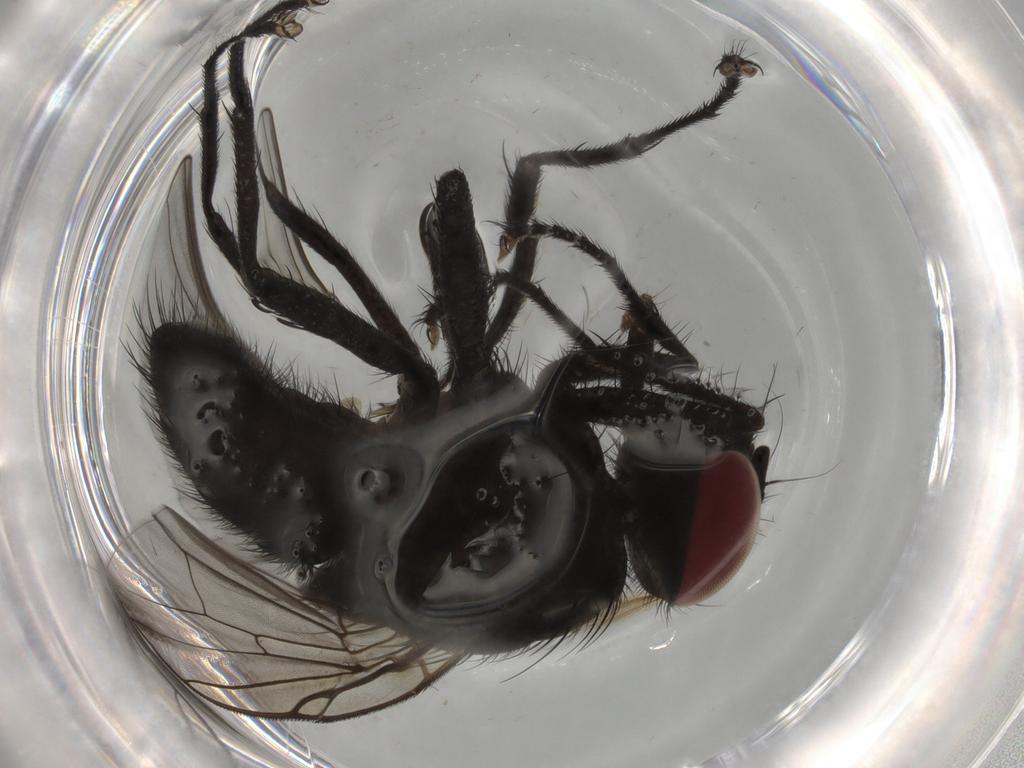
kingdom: Animalia
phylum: Arthropoda
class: Insecta
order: Diptera
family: Muscidae
